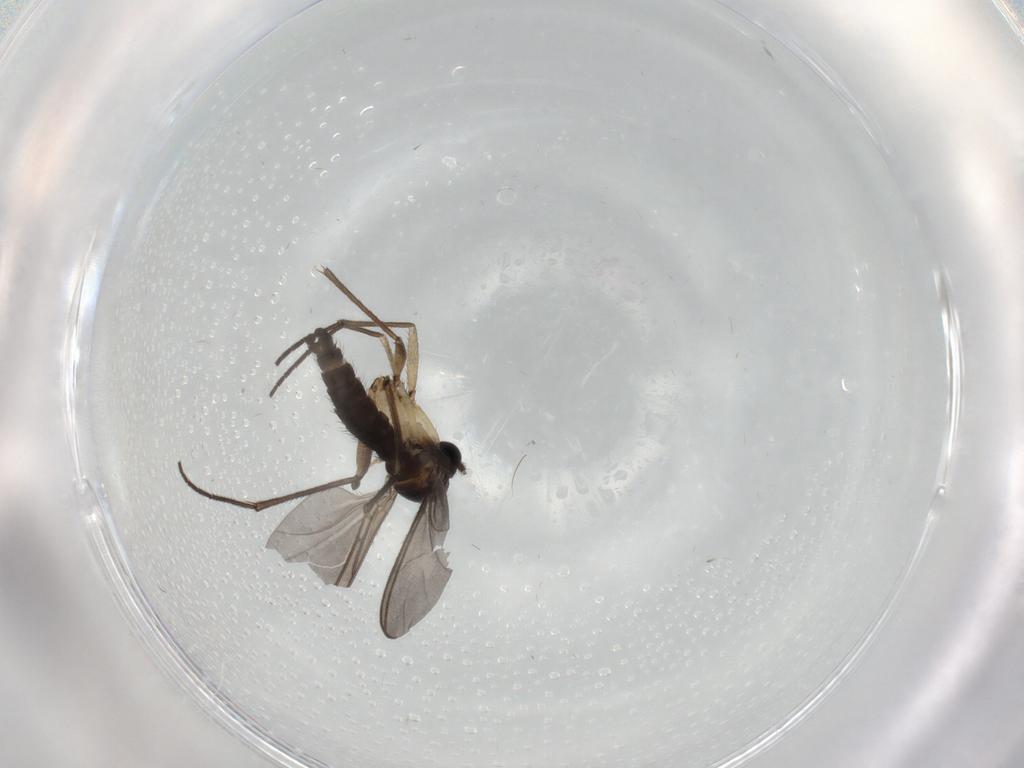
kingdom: Animalia
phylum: Arthropoda
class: Insecta
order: Diptera
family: Sciaridae
